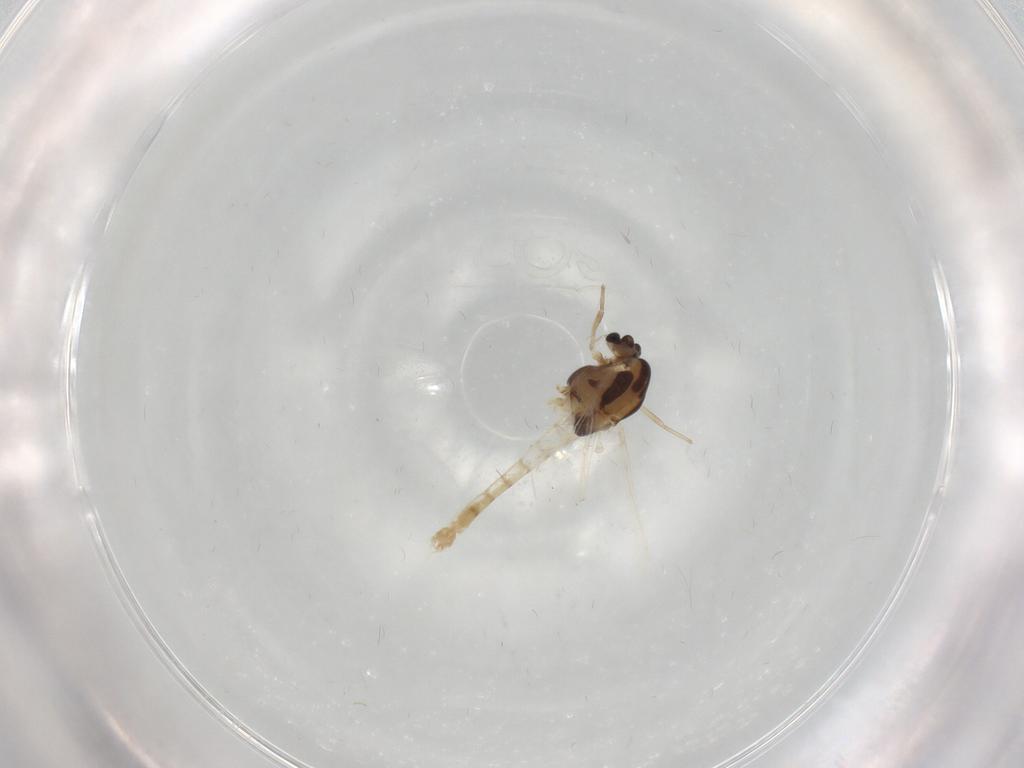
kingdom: Animalia
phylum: Arthropoda
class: Insecta
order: Diptera
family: Chironomidae
